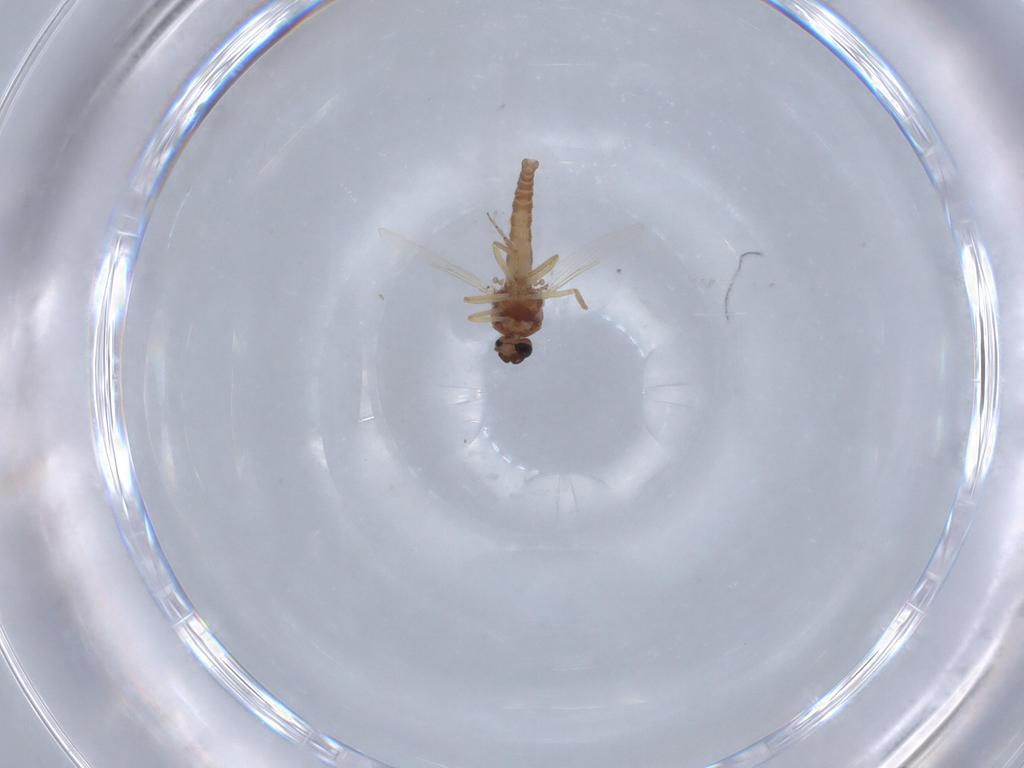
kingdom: Animalia
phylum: Arthropoda
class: Insecta
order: Diptera
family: Ceratopogonidae
